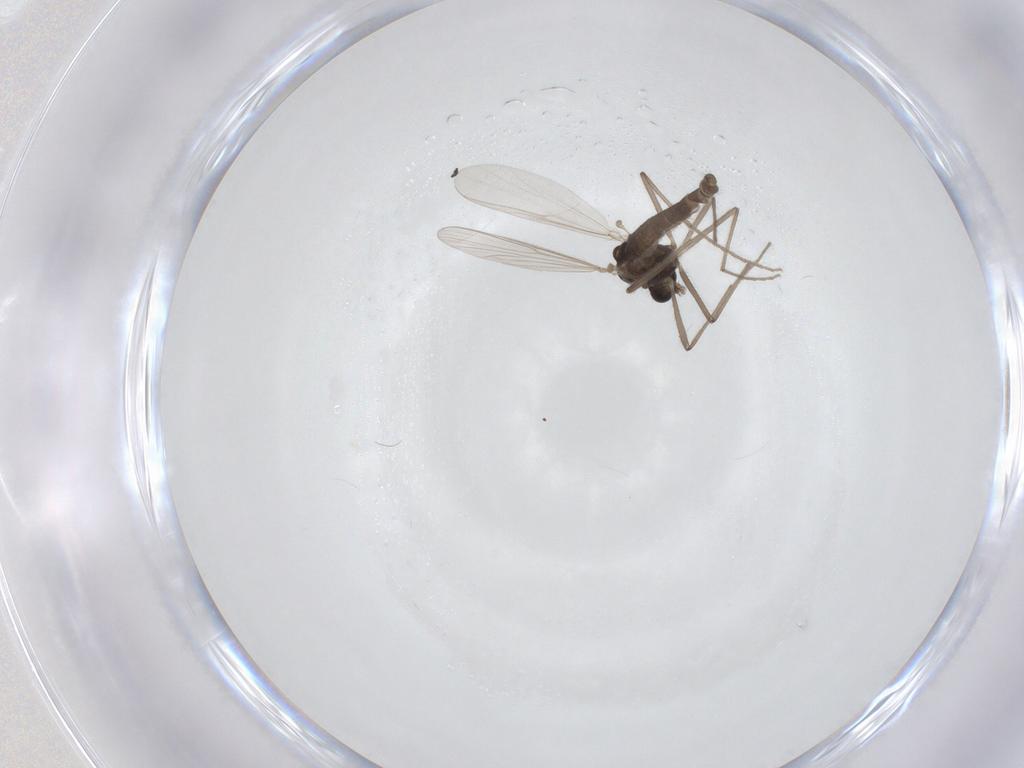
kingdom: Animalia
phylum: Arthropoda
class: Insecta
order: Diptera
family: Chironomidae
